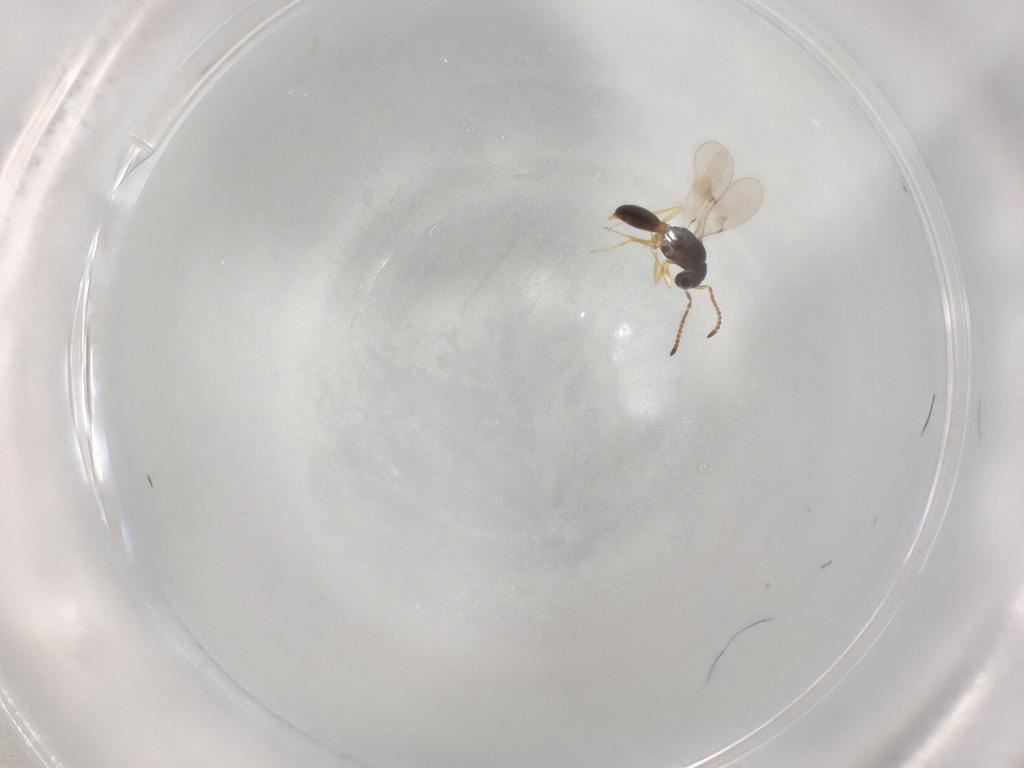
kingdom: Animalia
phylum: Arthropoda
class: Insecta
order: Hymenoptera
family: Scelionidae
